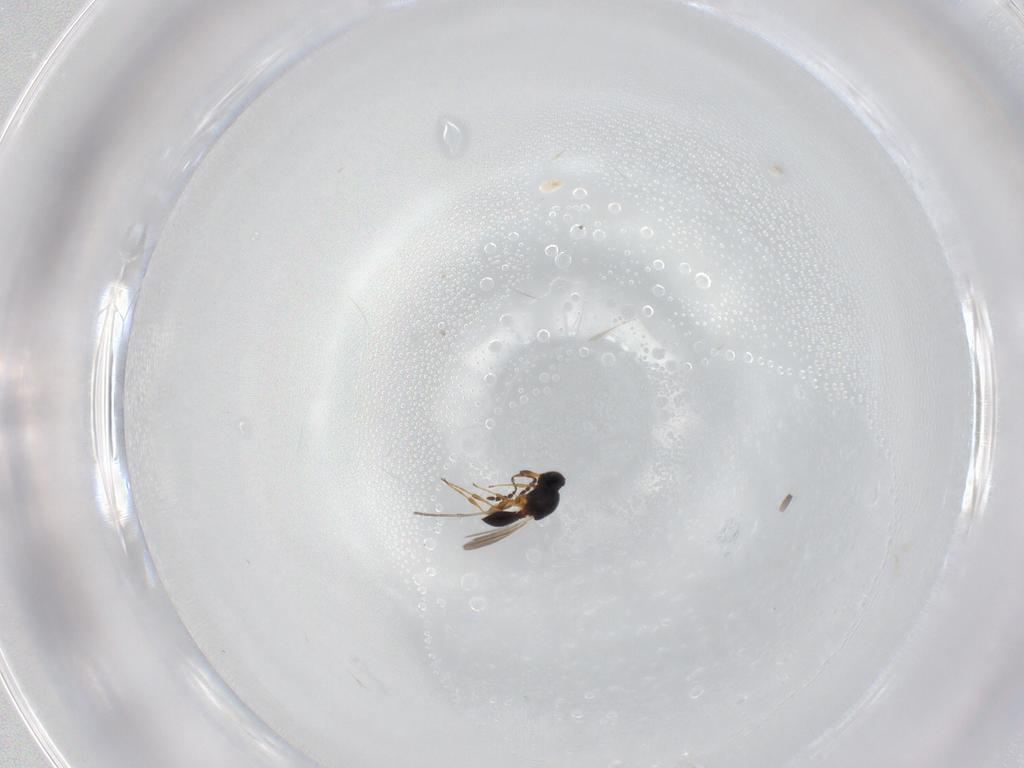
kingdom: Animalia
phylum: Arthropoda
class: Insecta
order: Hymenoptera
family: Platygastridae
